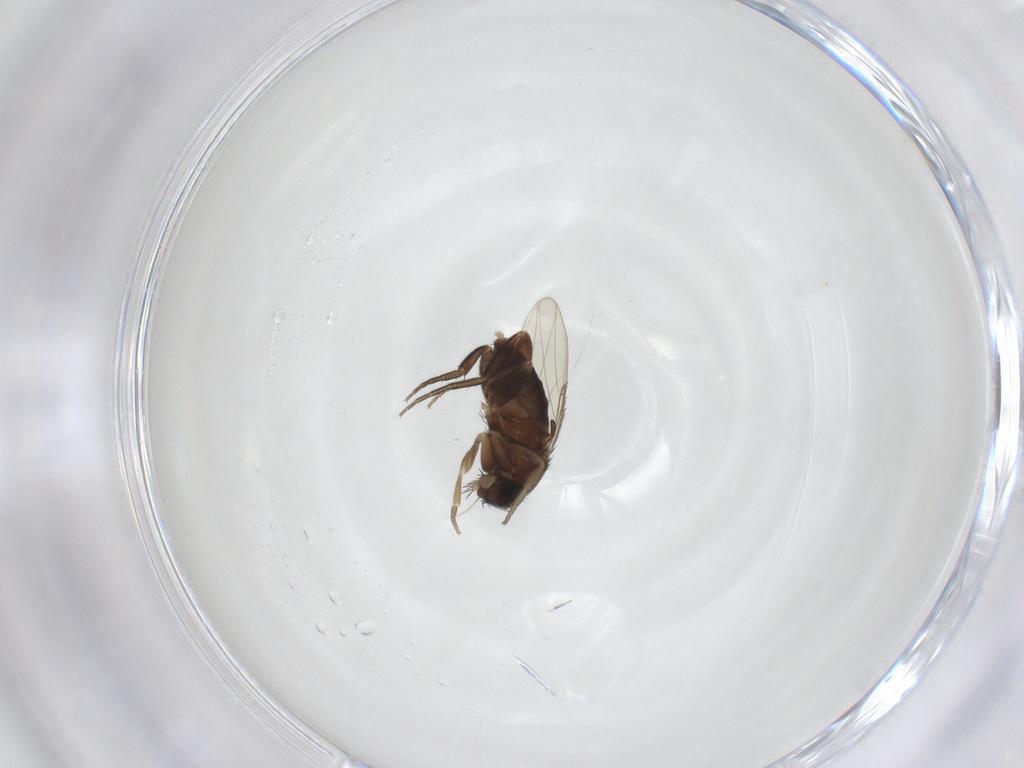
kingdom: Animalia
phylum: Arthropoda
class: Insecta
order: Diptera
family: Phoridae
